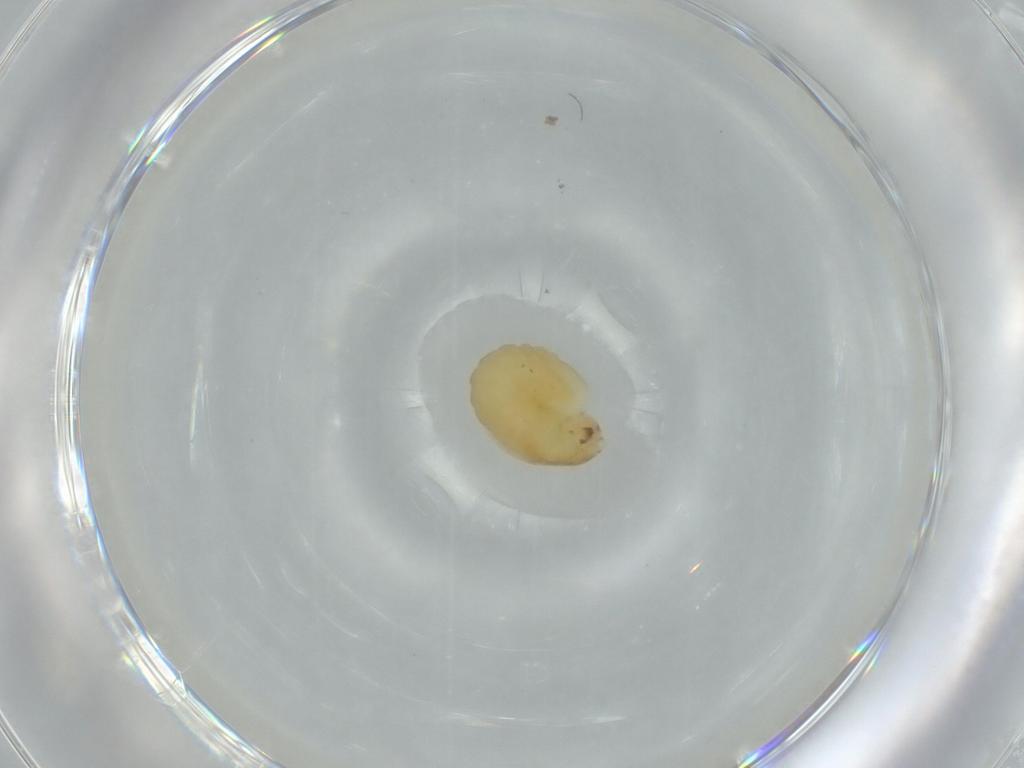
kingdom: Animalia
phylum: Arthropoda
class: Insecta
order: Hymenoptera
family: Dryinidae
